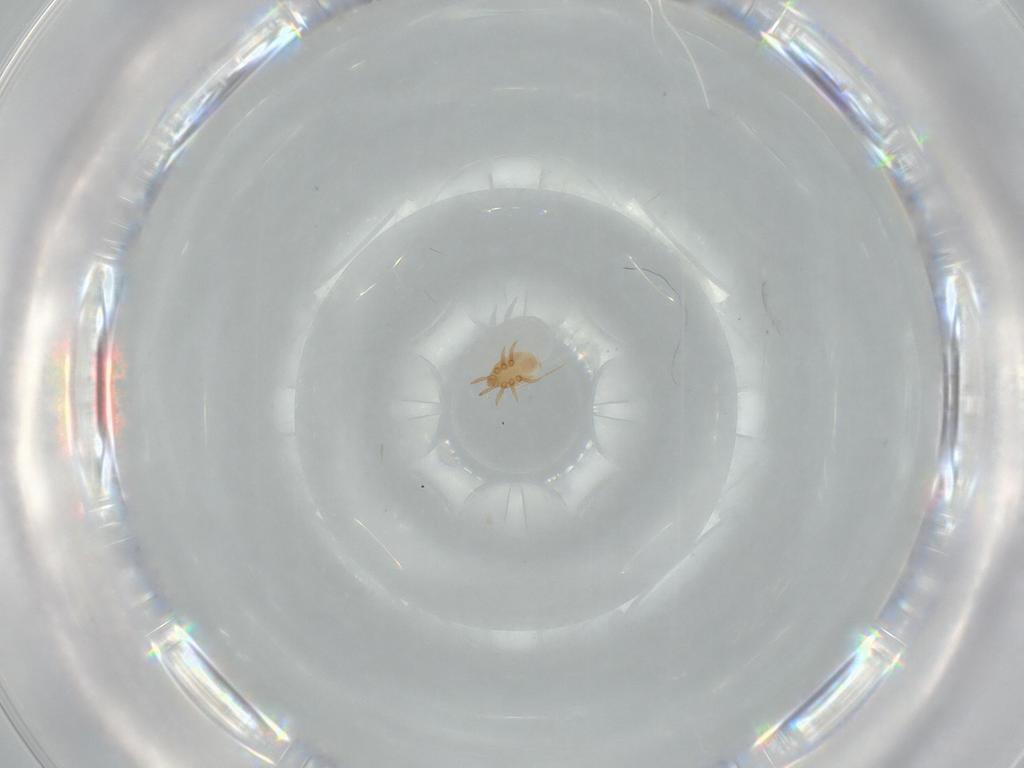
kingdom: Animalia
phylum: Arthropoda
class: Arachnida
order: Mesostigmata
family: Dinychidae
